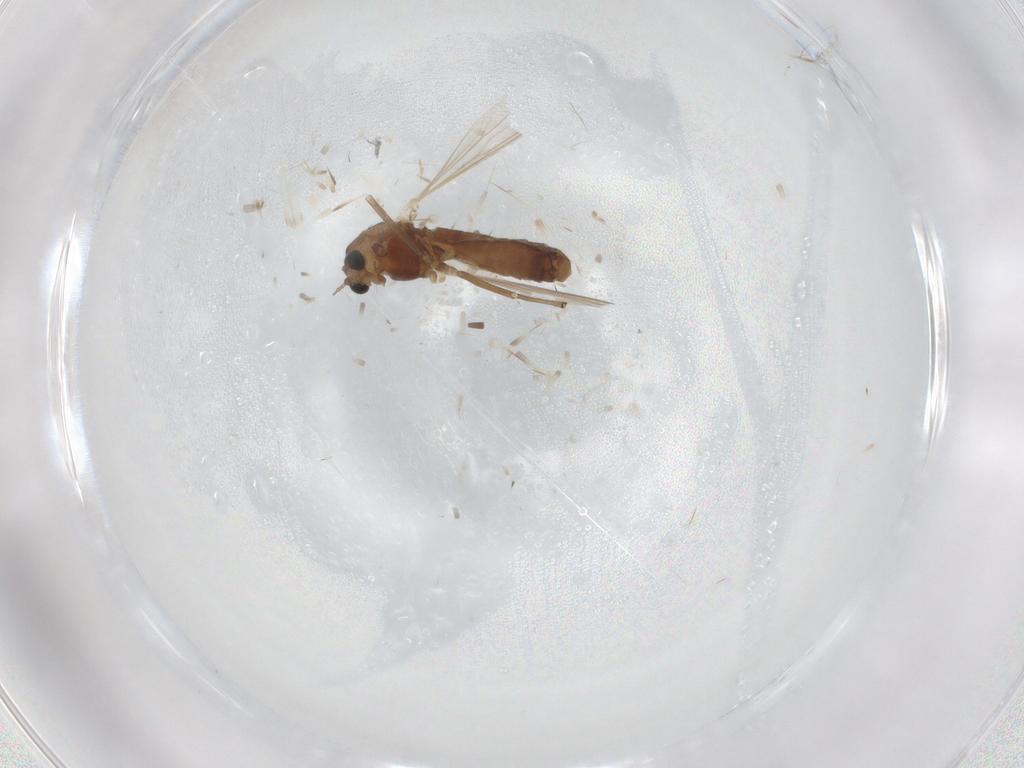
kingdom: Animalia
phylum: Arthropoda
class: Insecta
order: Diptera
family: Chironomidae
